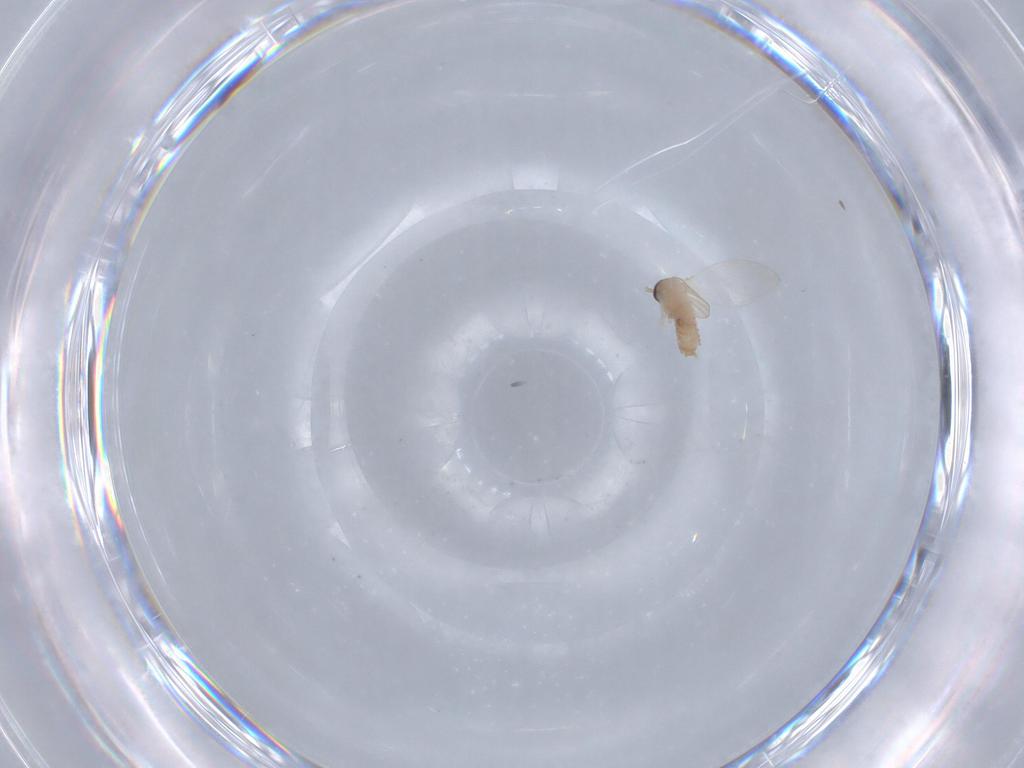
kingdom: Animalia
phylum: Arthropoda
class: Insecta
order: Diptera
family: Psychodidae
